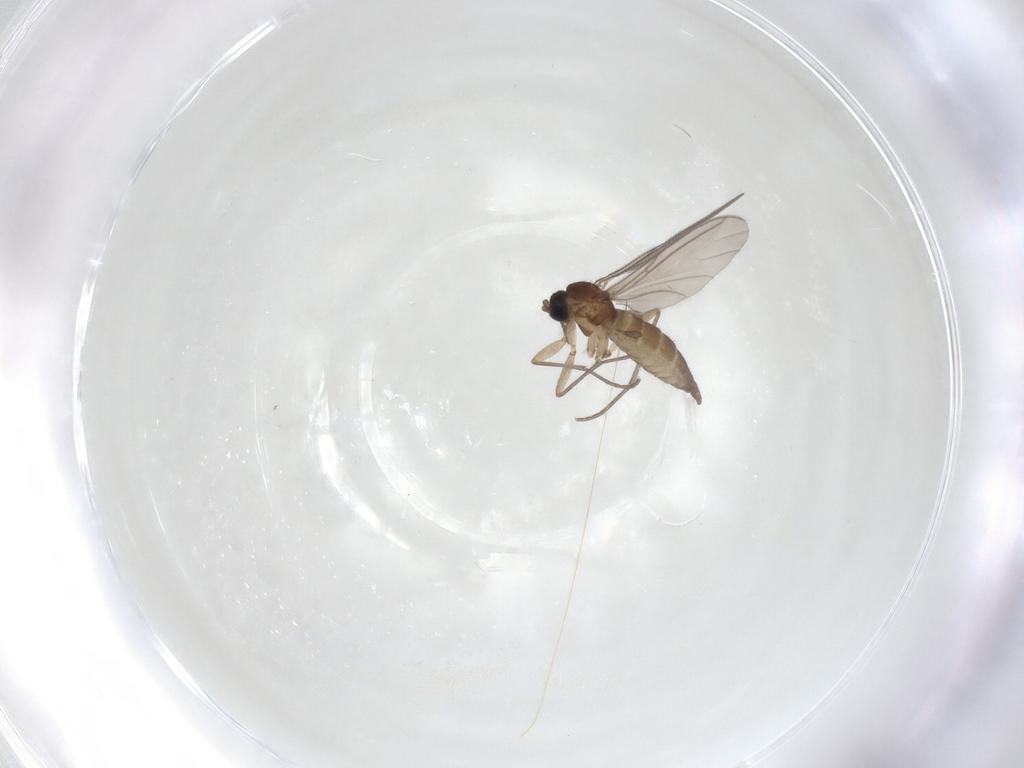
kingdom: Animalia
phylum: Arthropoda
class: Insecta
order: Diptera
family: Sciaridae
